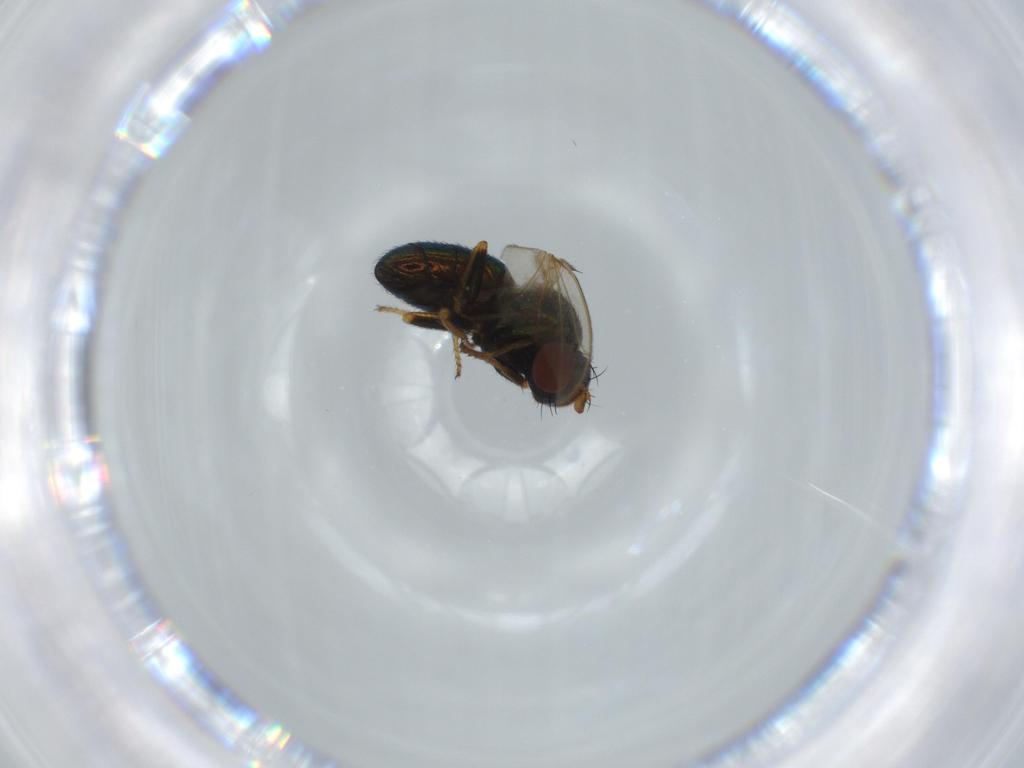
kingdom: Animalia
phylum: Arthropoda
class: Insecta
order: Diptera
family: Ephydridae
